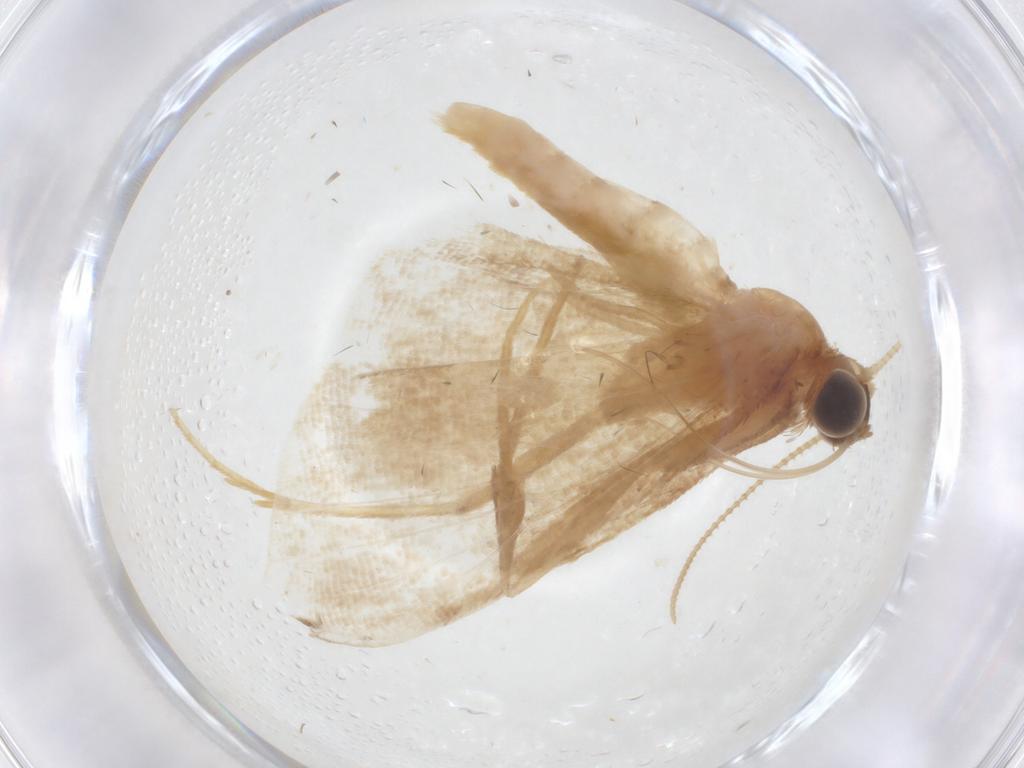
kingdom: Animalia
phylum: Arthropoda
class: Insecta
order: Lepidoptera
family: Geometridae
